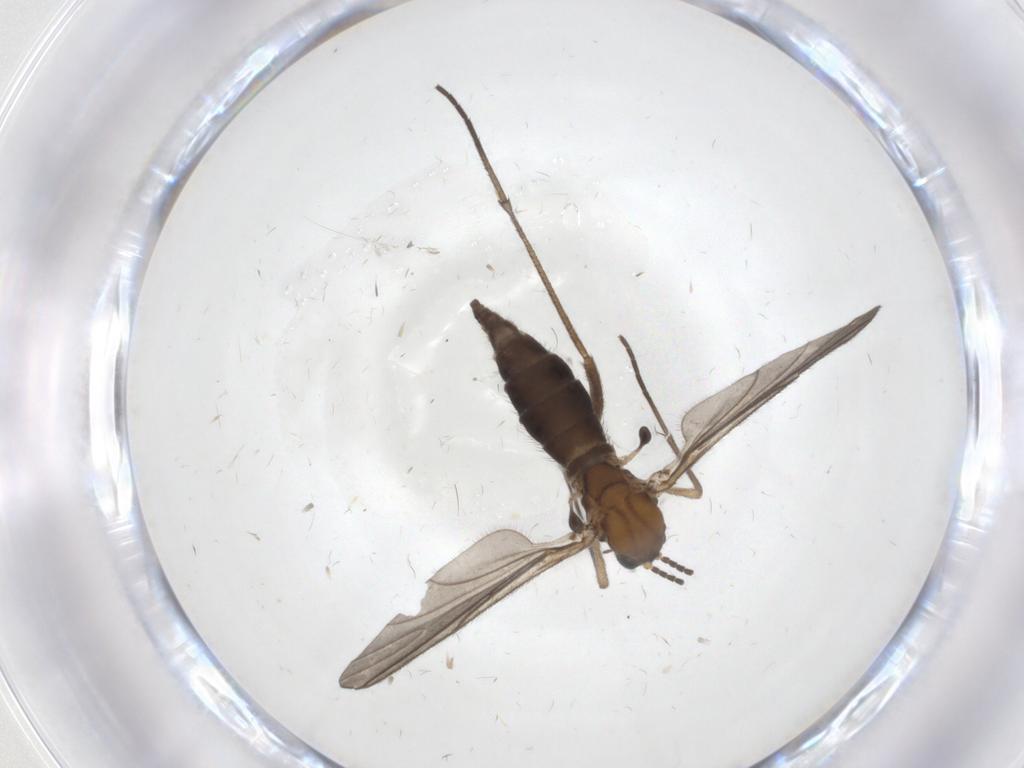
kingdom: Animalia
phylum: Arthropoda
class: Insecta
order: Diptera
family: Sciaridae
